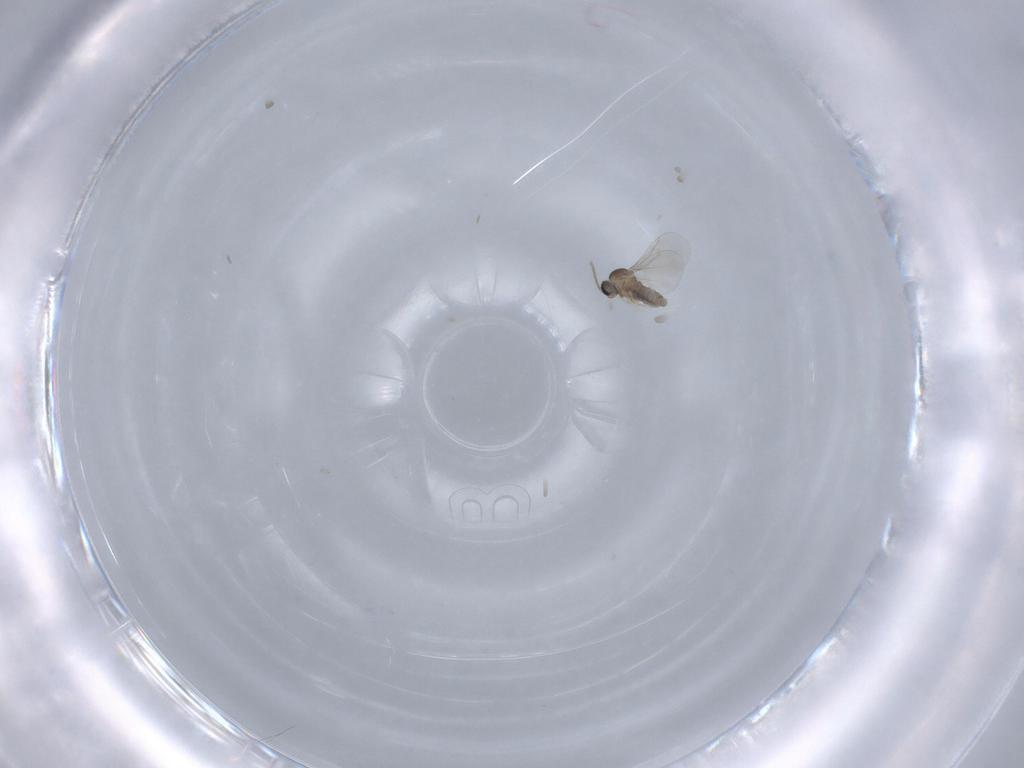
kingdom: Animalia
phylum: Arthropoda
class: Insecta
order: Diptera
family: Cecidomyiidae
